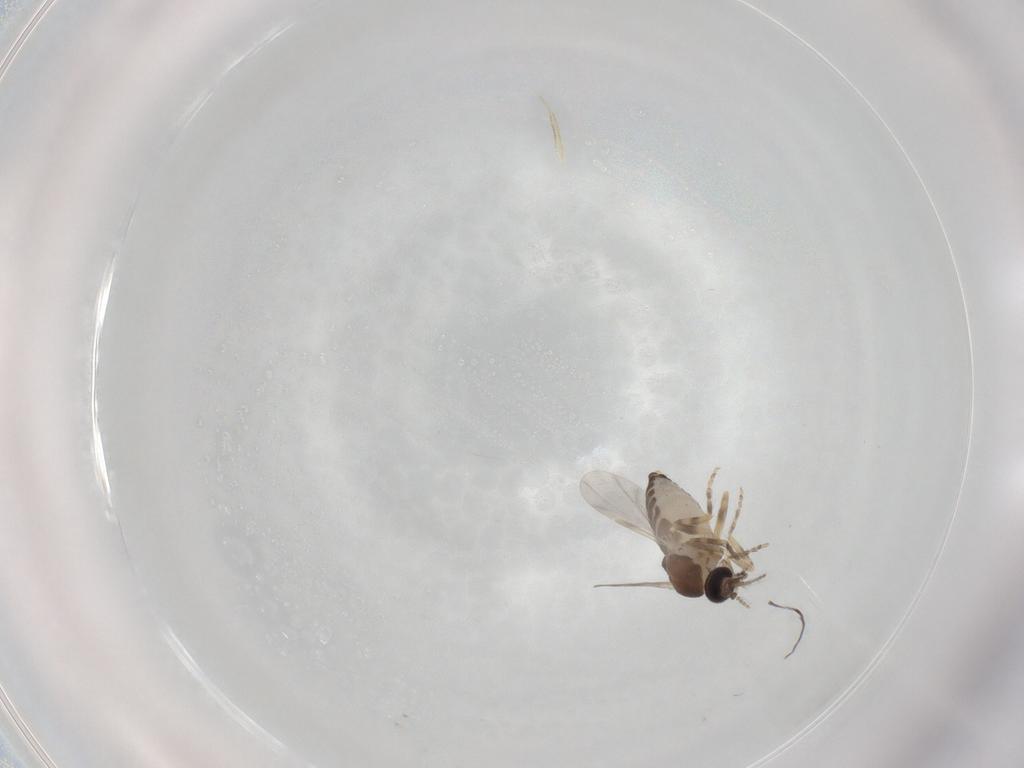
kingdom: Animalia
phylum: Arthropoda
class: Insecta
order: Diptera
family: Ceratopogonidae
